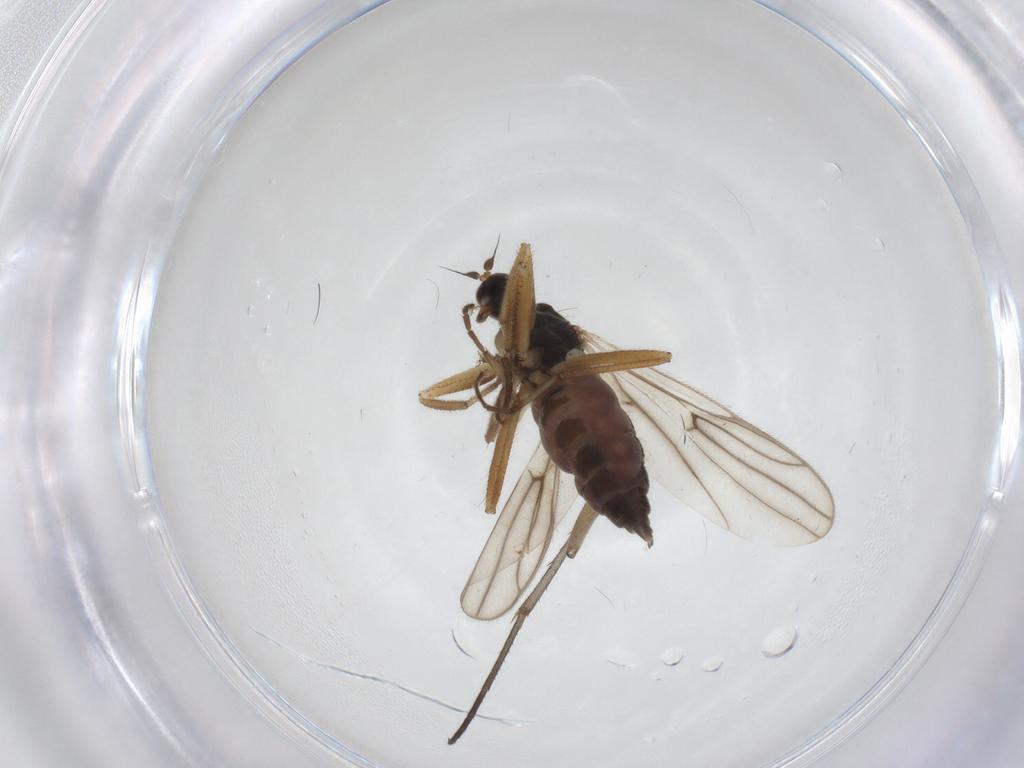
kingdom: Animalia
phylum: Arthropoda
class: Insecta
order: Diptera
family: Hybotidae
